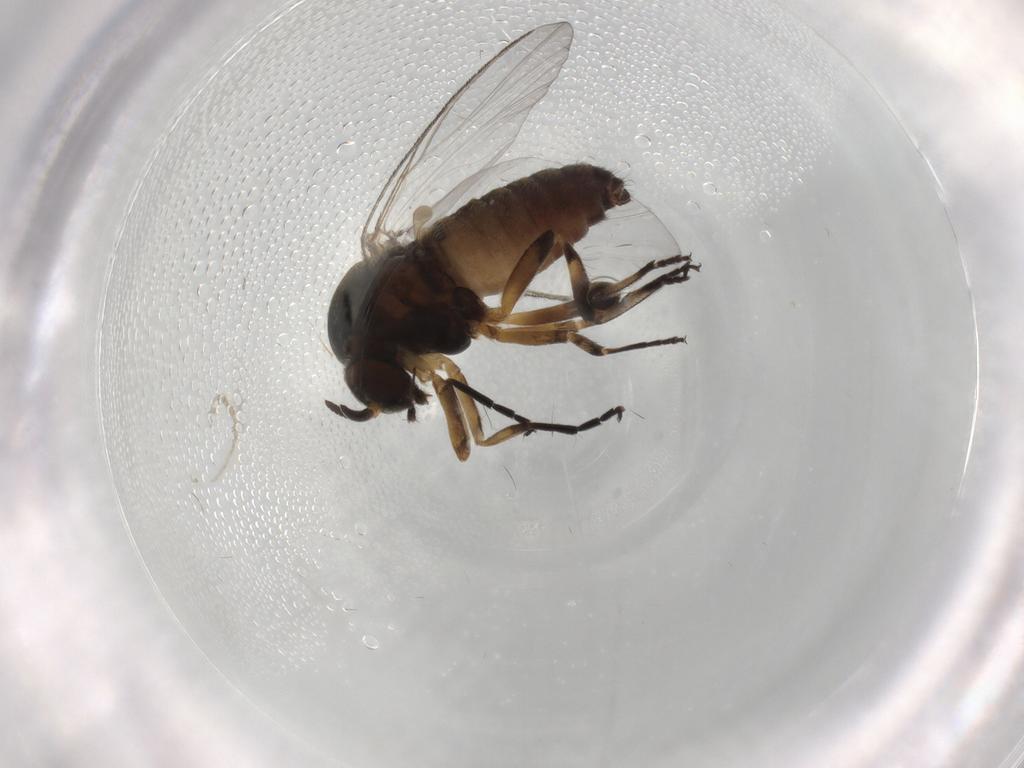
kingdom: Animalia
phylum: Arthropoda
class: Insecta
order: Diptera
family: Simuliidae
